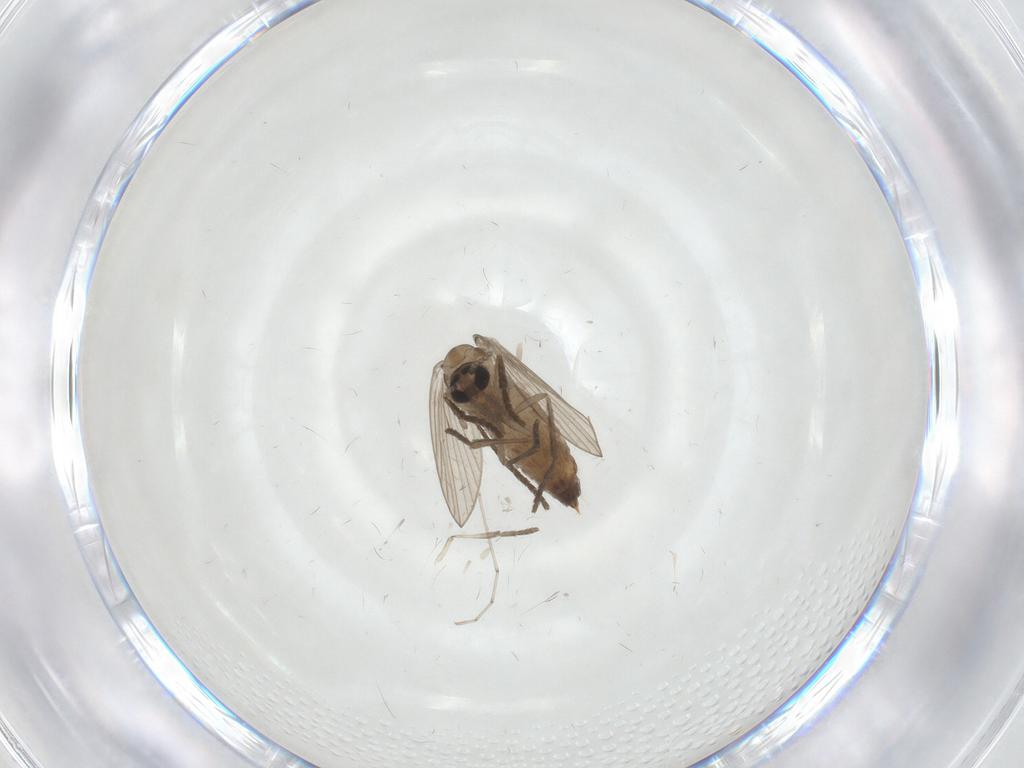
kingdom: Animalia
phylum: Arthropoda
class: Insecta
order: Diptera
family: Psychodidae
